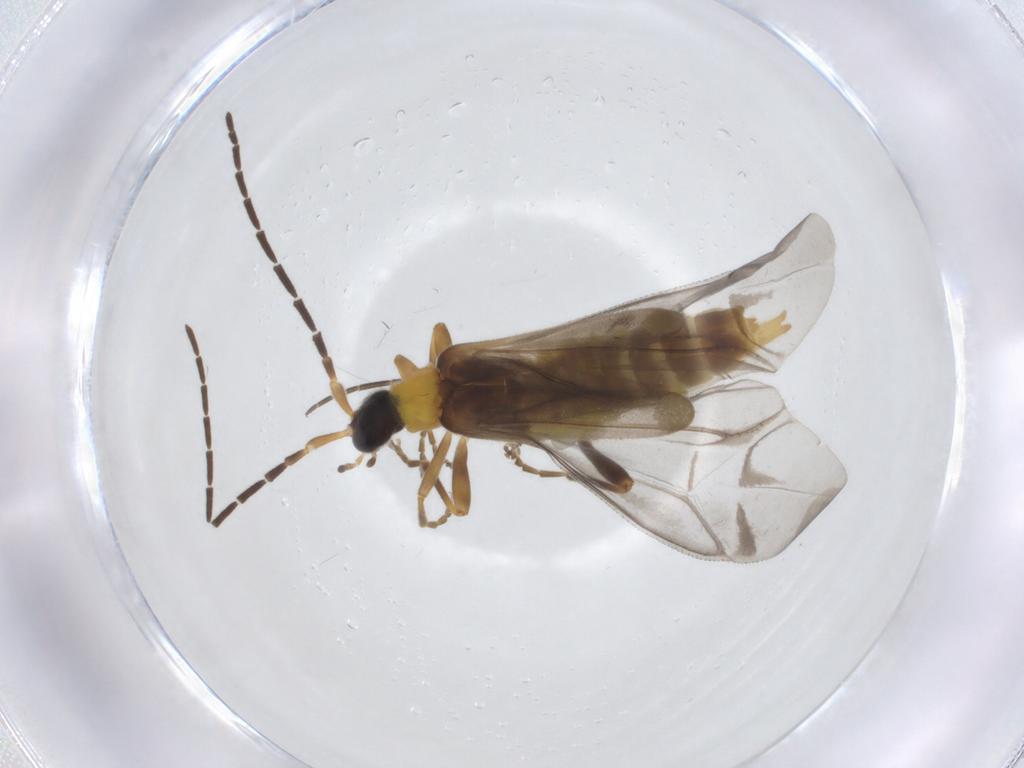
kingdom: Animalia
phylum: Arthropoda
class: Insecta
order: Coleoptera
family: Cantharidae
